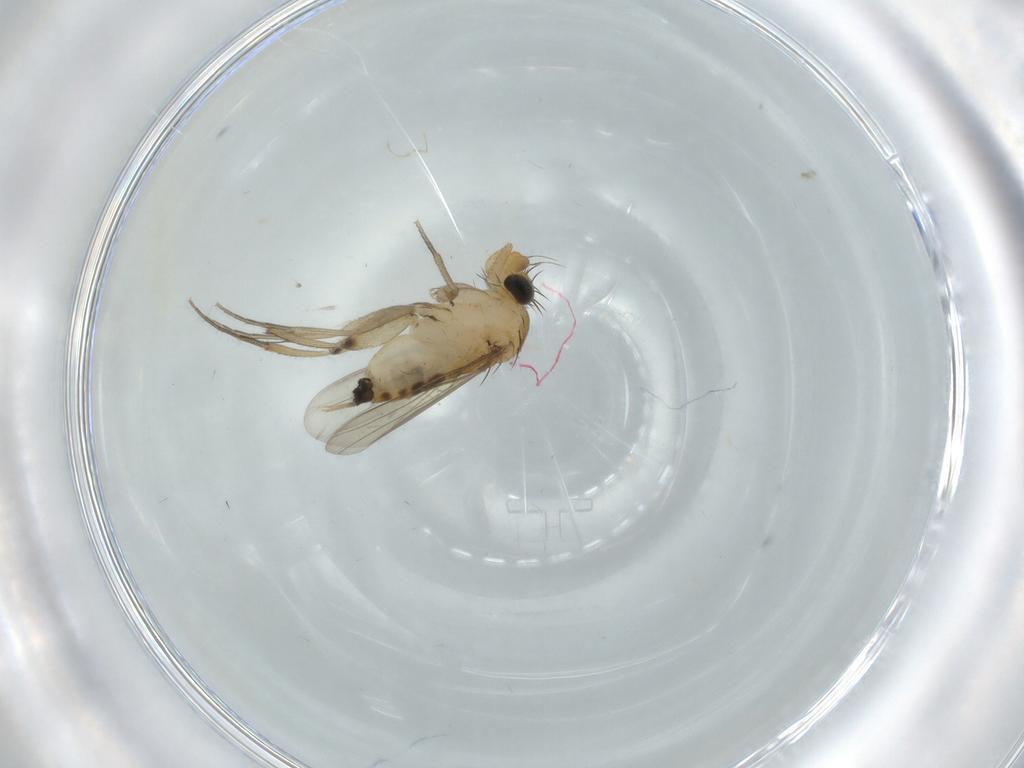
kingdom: Animalia
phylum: Arthropoda
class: Insecta
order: Diptera
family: Phoridae
